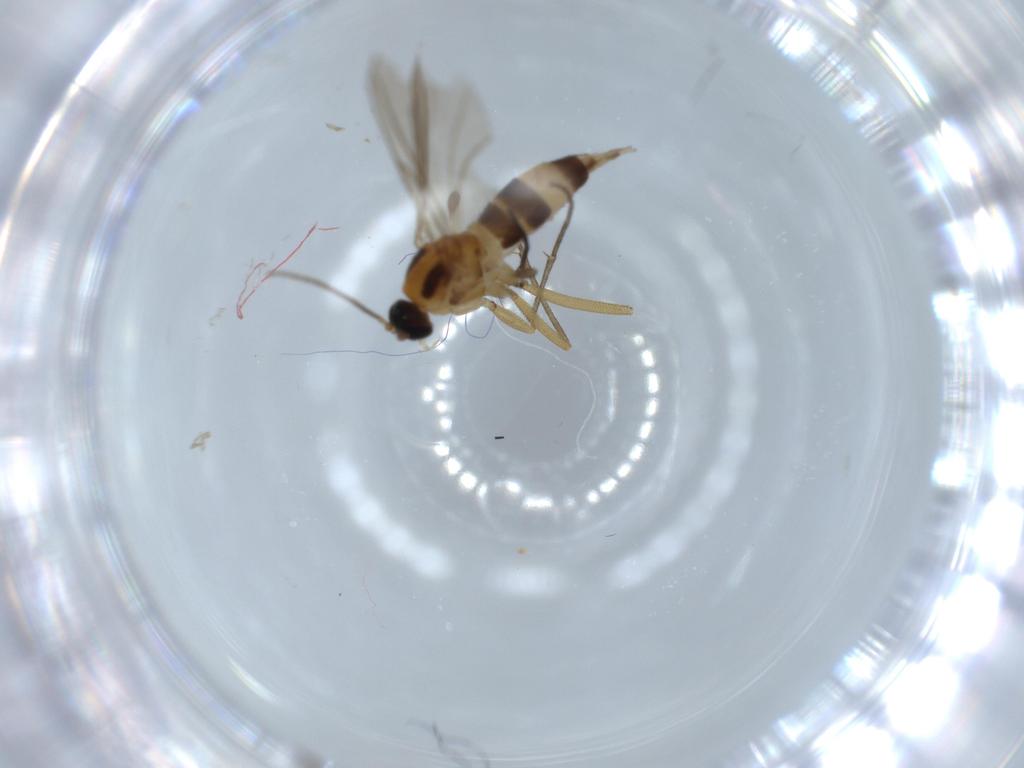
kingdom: Animalia
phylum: Arthropoda
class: Insecta
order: Diptera
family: Sciaridae
